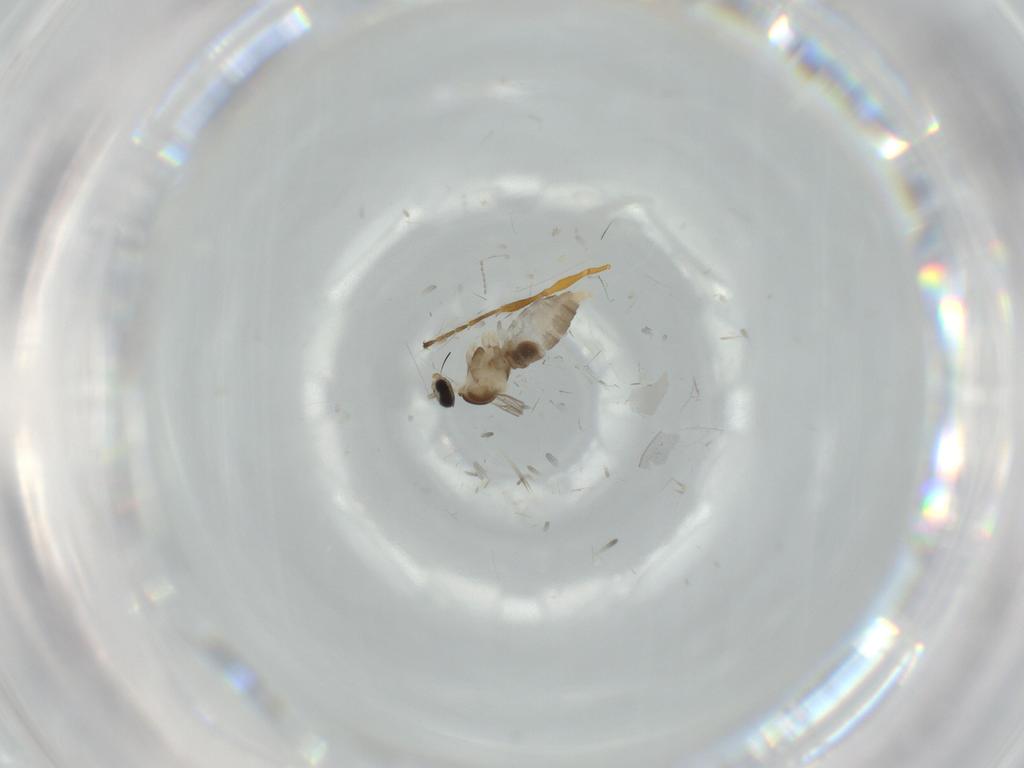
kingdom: Animalia
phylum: Arthropoda
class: Insecta
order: Diptera
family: Cecidomyiidae
